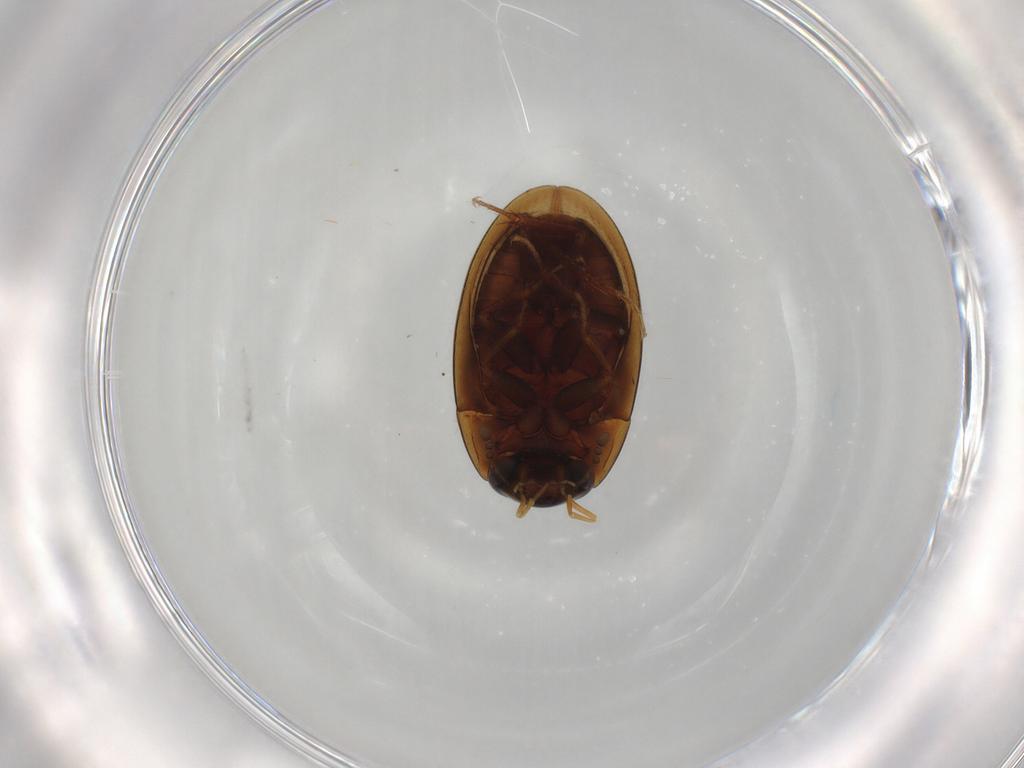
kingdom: Animalia
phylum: Arthropoda
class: Insecta
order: Coleoptera
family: Hydrophilidae
